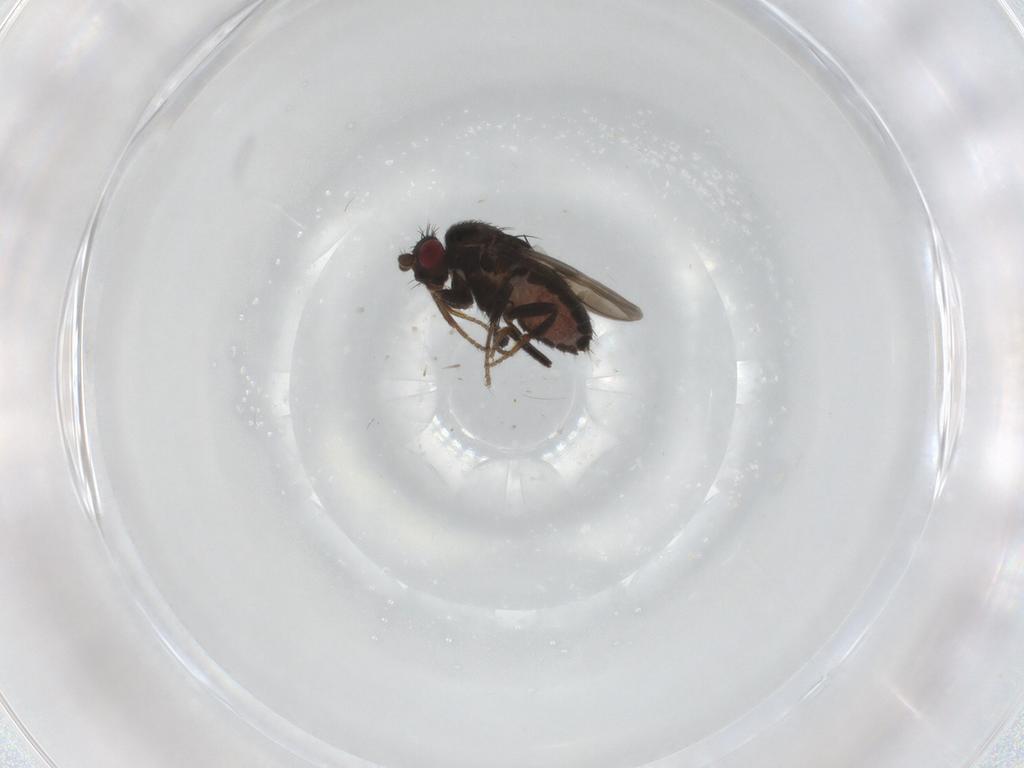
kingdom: Animalia
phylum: Arthropoda
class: Insecta
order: Diptera
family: Sphaeroceridae
